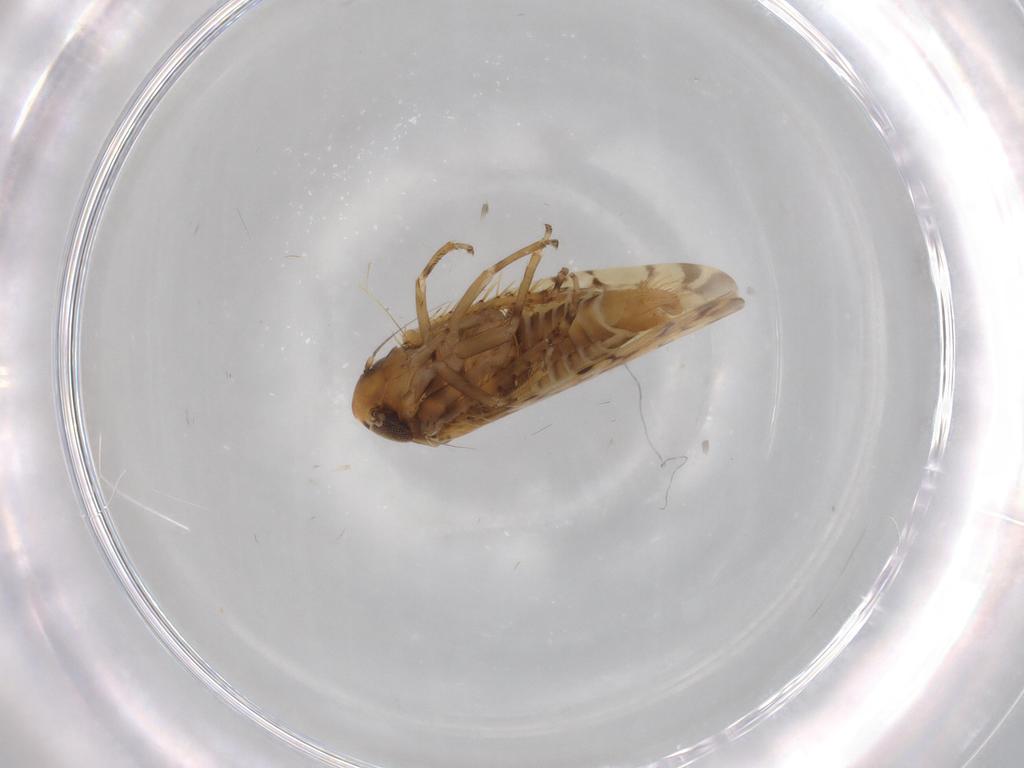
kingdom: Animalia
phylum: Arthropoda
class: Insecta
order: Hemiptera
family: Cicadellidae
